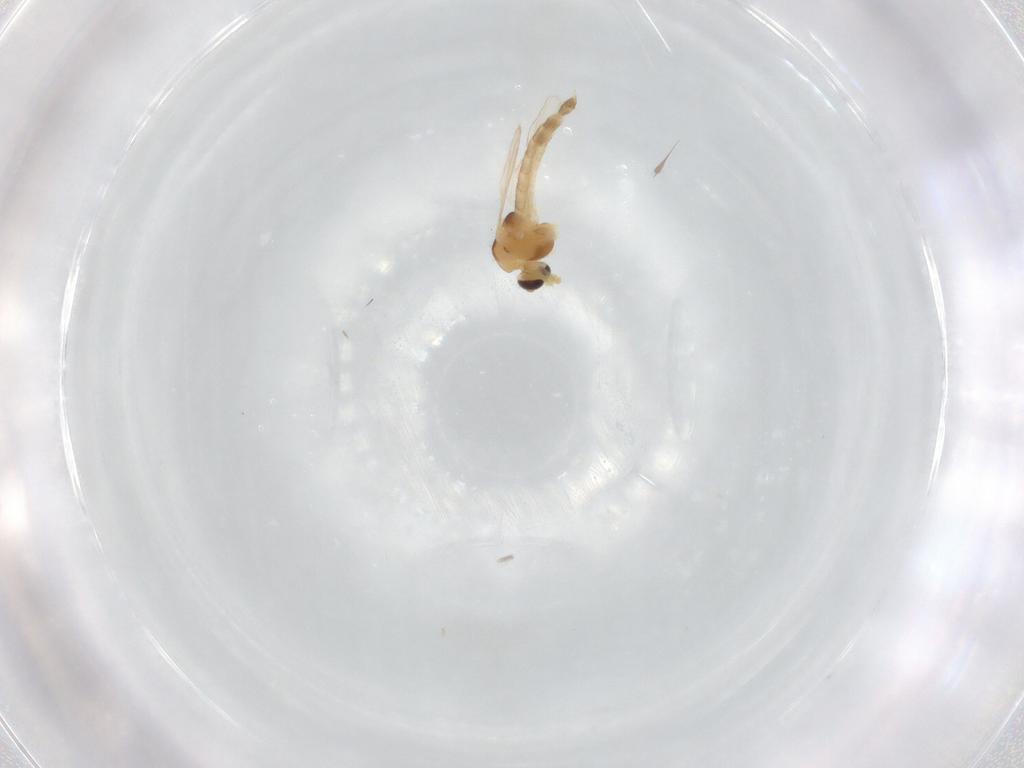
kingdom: Animalia
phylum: Arthropoda
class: Insecta
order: Diptera
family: Chironomidae
